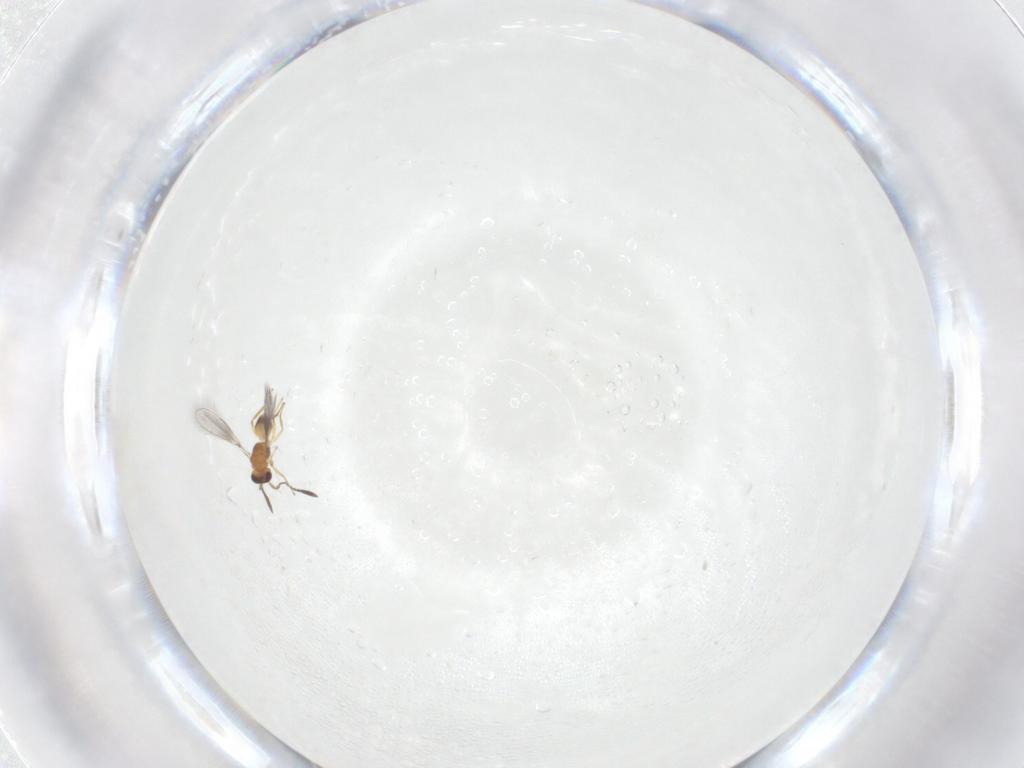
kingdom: Animalia
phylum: Arthropoda
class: Insecta
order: Hymenoptera
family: Mymaridae
